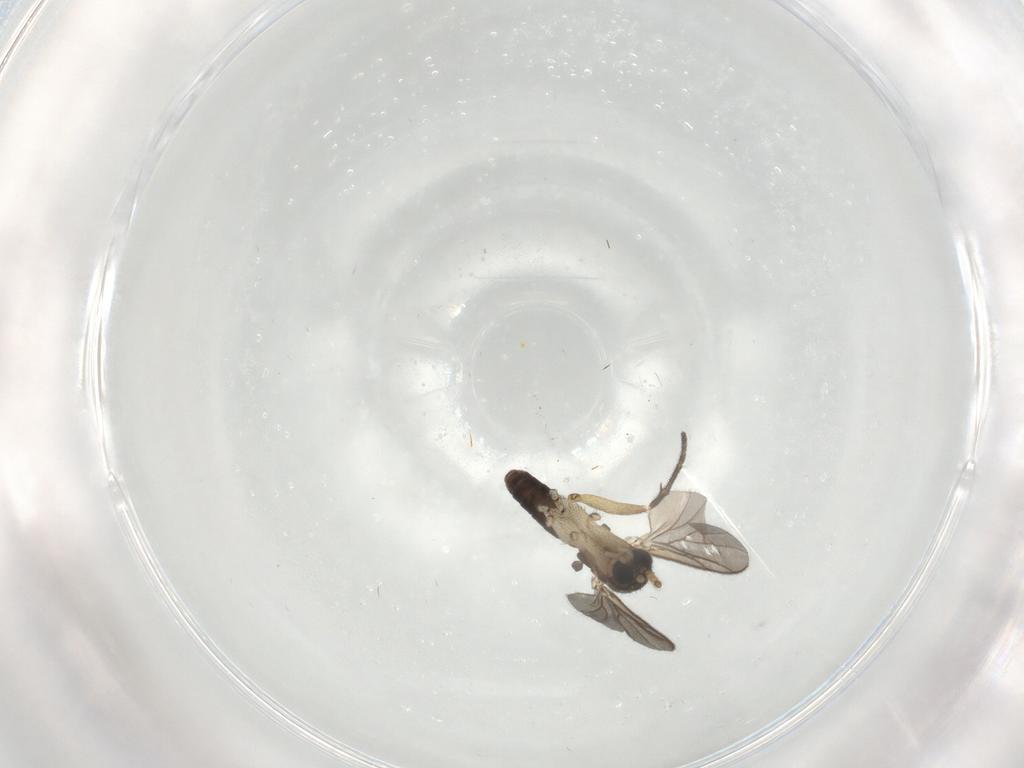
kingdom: Animalia
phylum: Arthropoda
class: Insecta
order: Diptera
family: Mycetophilidae
